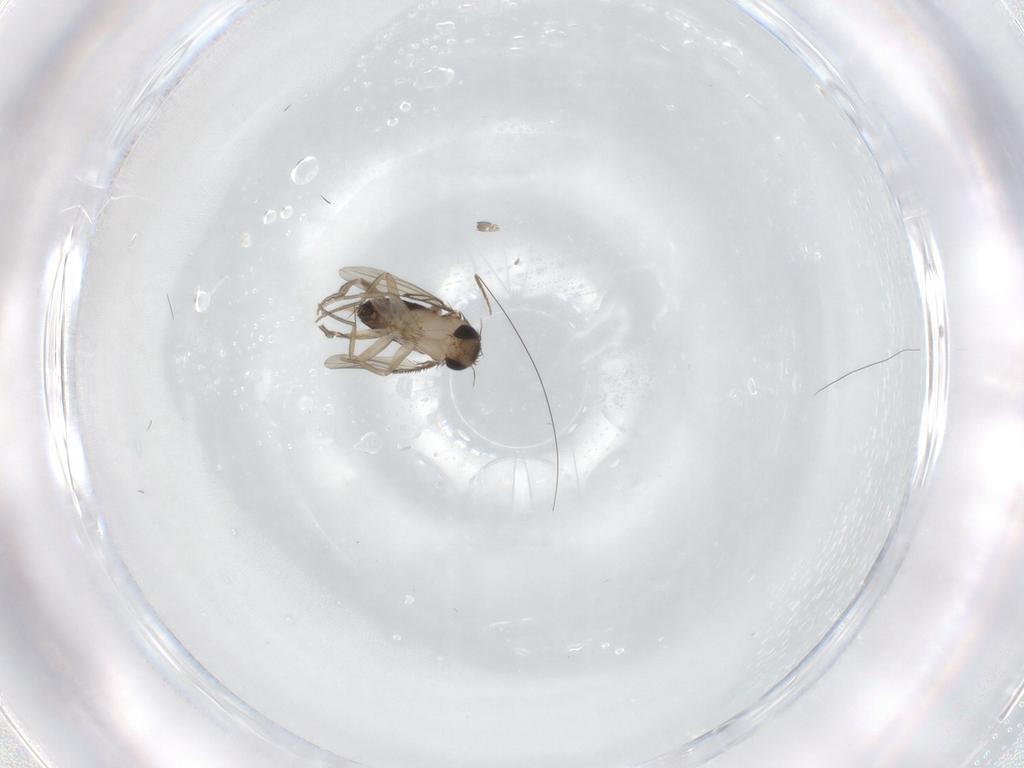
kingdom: Animalia
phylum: Arthropoda
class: Insecta
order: Diptera
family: Phoridae
